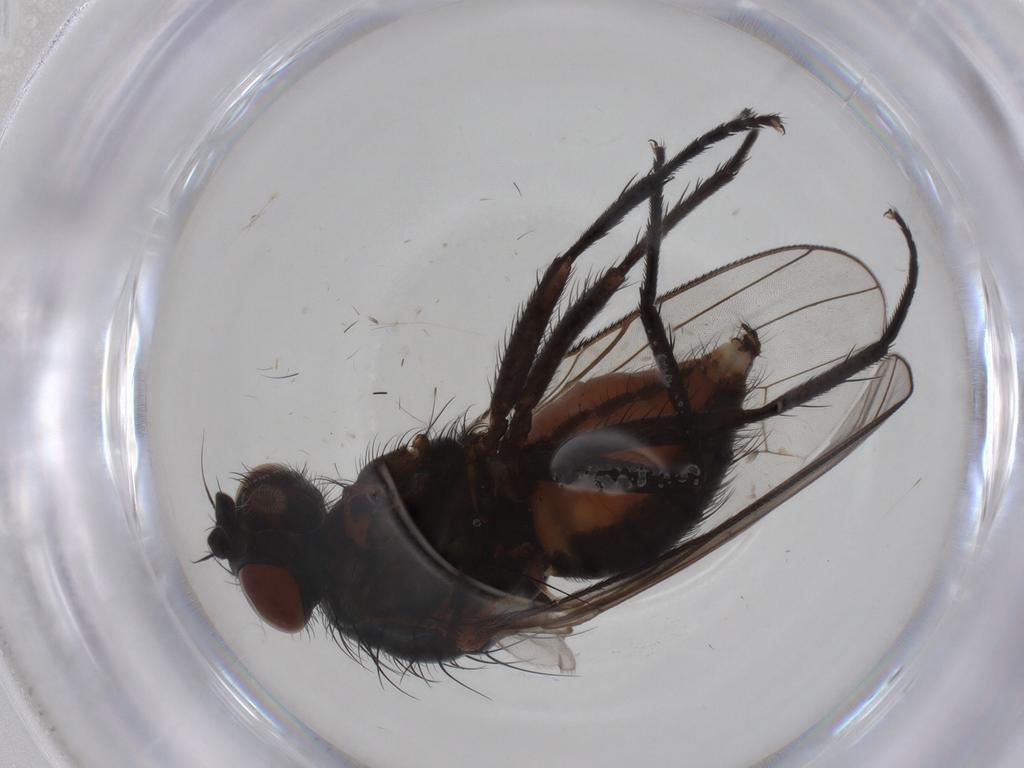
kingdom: Animalia
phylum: Arthropoda
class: Insecta
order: Diptera
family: Anthomyiidae
